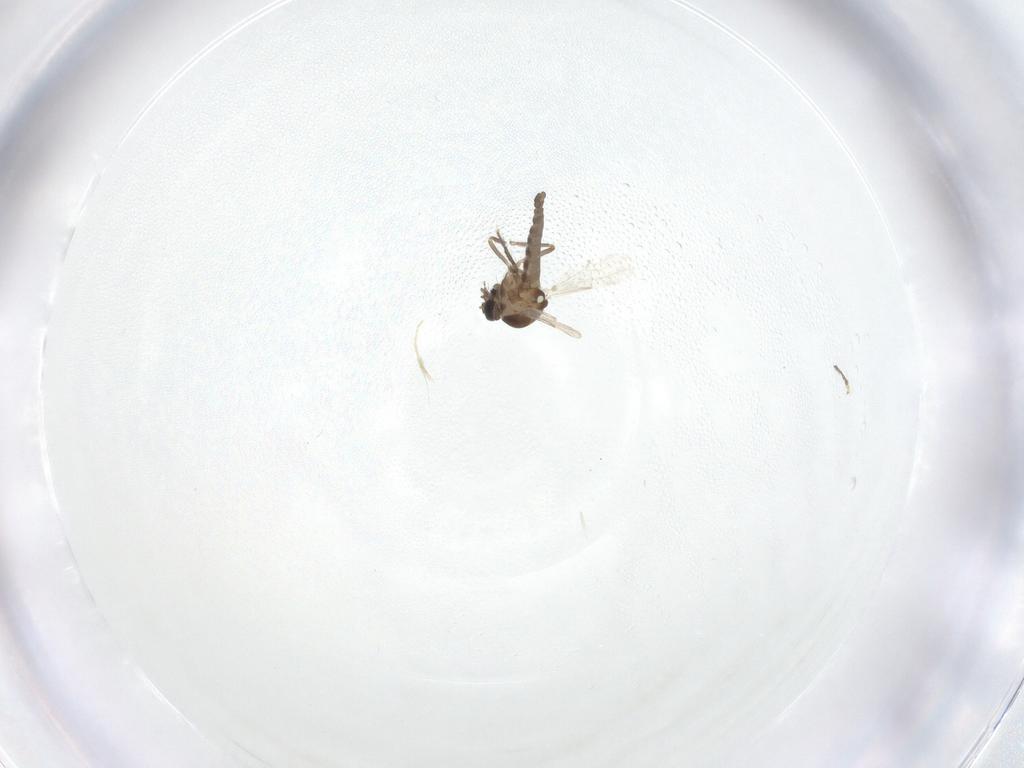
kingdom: Animalia
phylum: Arthropoda
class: Insecta
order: Diptera
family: Ceratopogonidae
